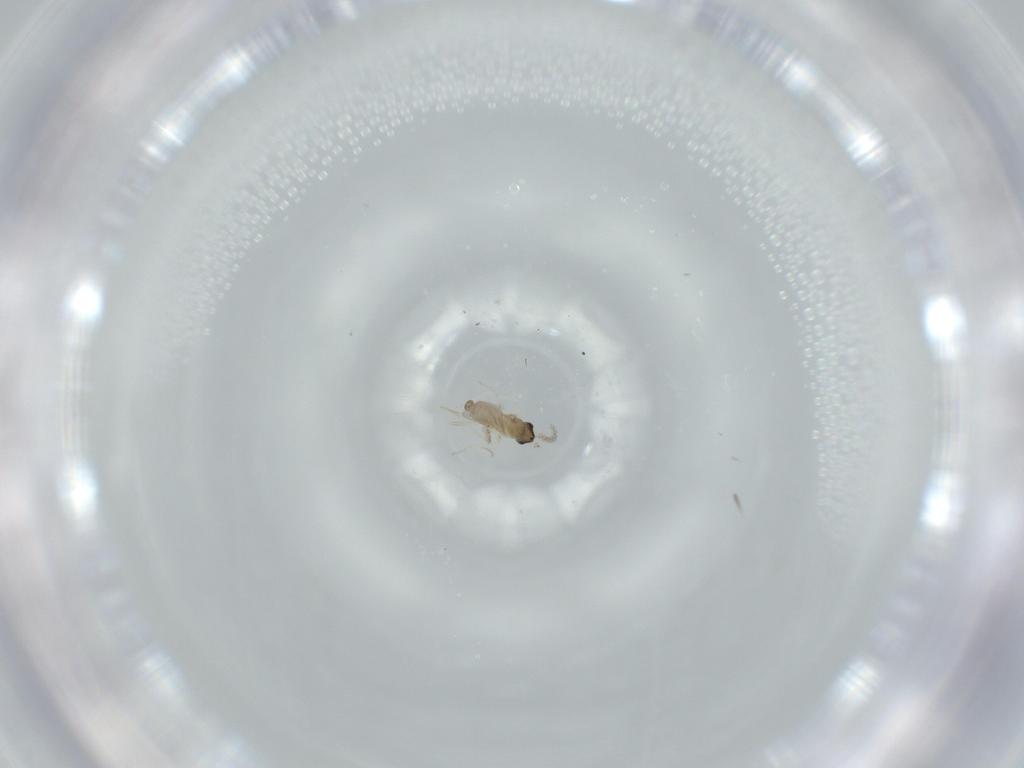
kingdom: Animalia
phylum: Arthropoda
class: Insecta
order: Diptera
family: Cecidomyiidae
